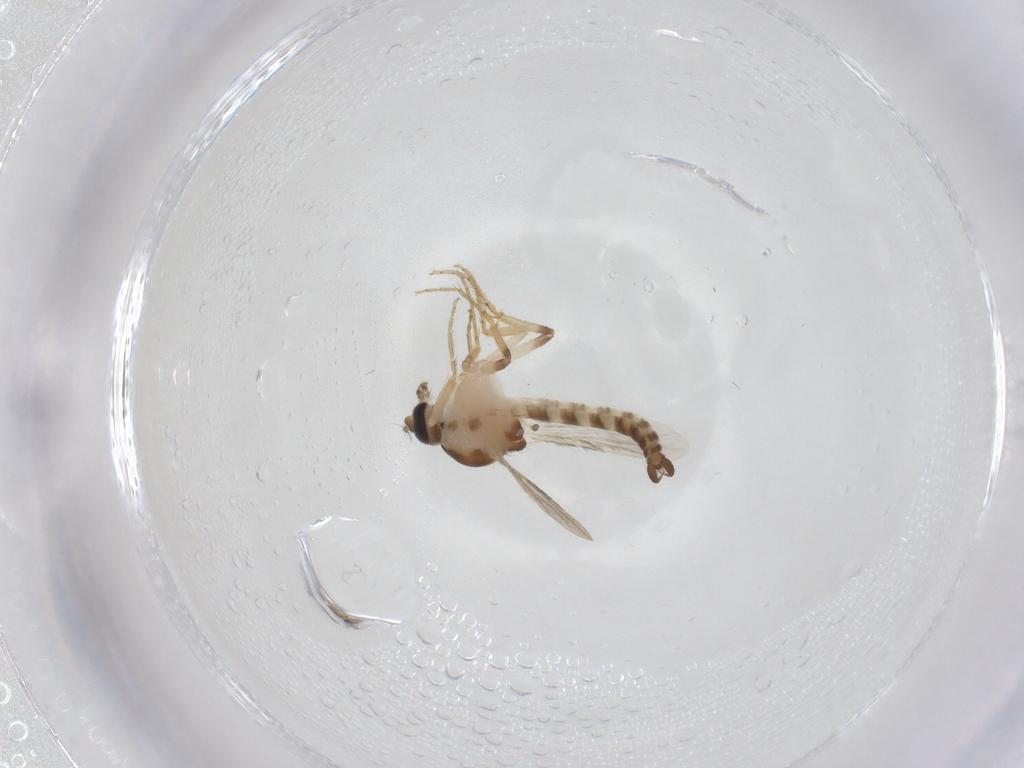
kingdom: Animalia
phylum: Arthropoda
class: Insecta
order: Diptera
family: Ceratopogonidae
